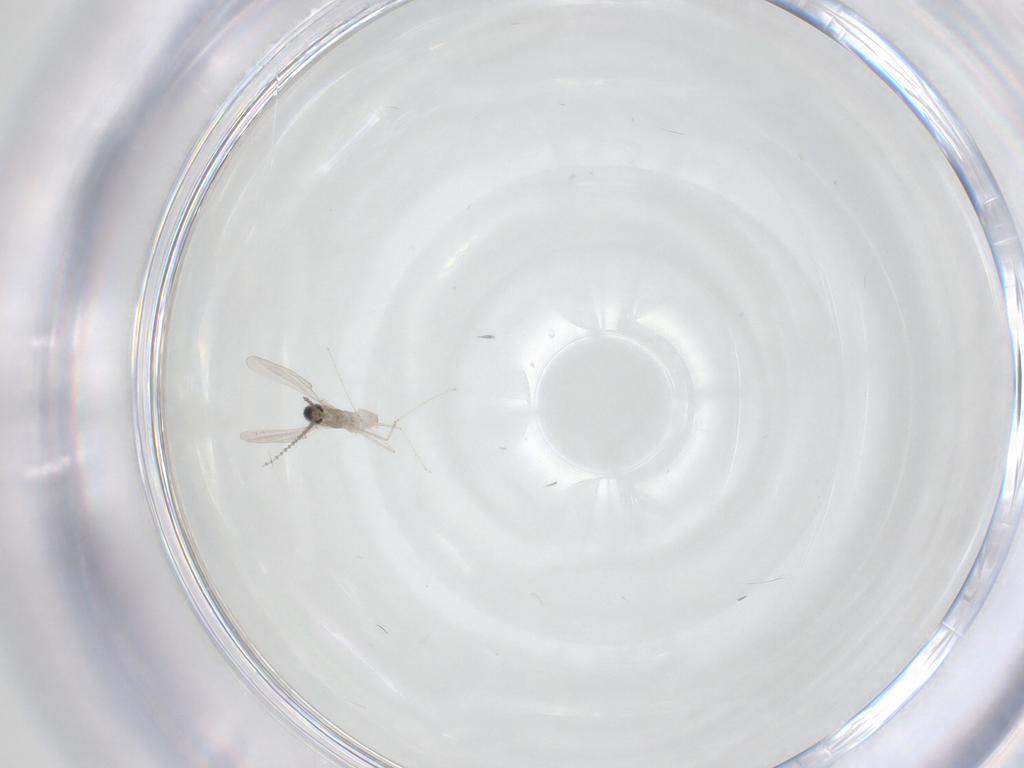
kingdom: Animalia
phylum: Arthropoda
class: Insecta
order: Diptera
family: Cecidomyiidae
